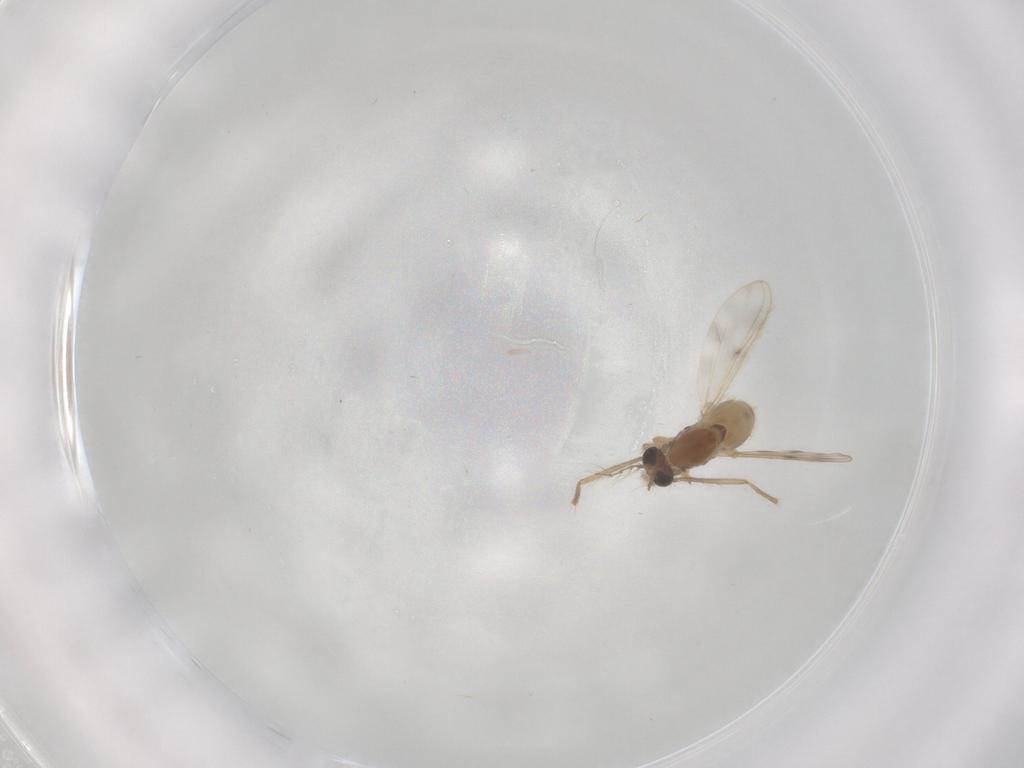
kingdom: Animalia
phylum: Arthropoda
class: Insecta
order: Diptera
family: Chironomidae
